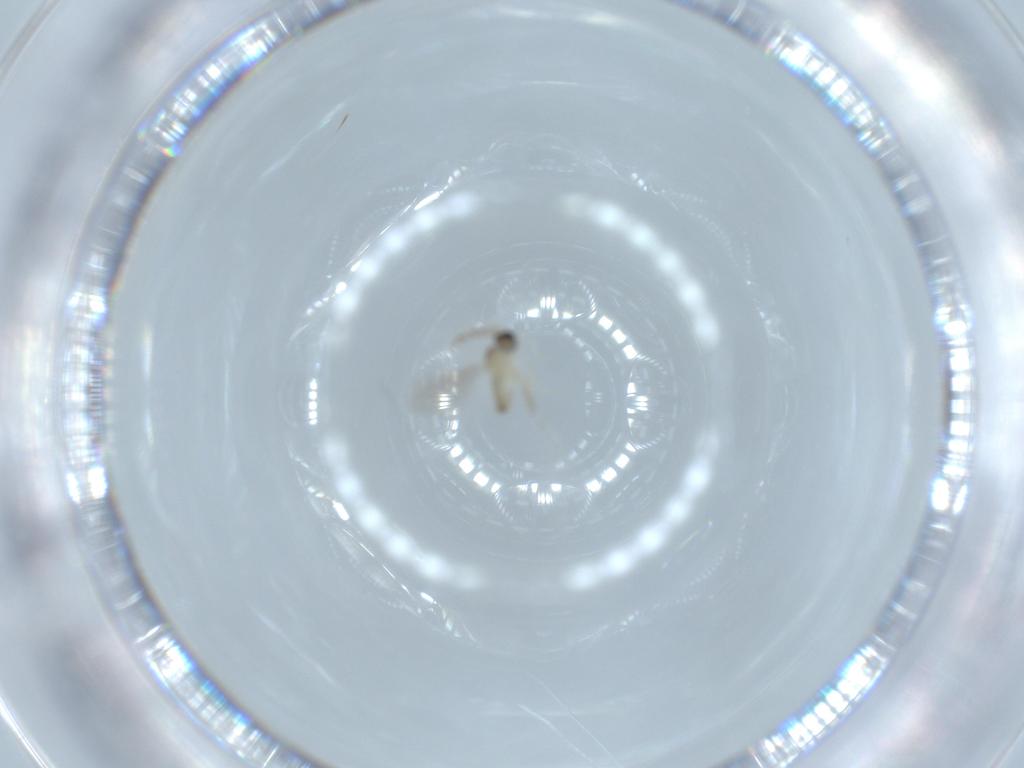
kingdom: Animalia
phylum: Arthropoda
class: Insecta
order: Diptera
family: Cecidomyiidae
